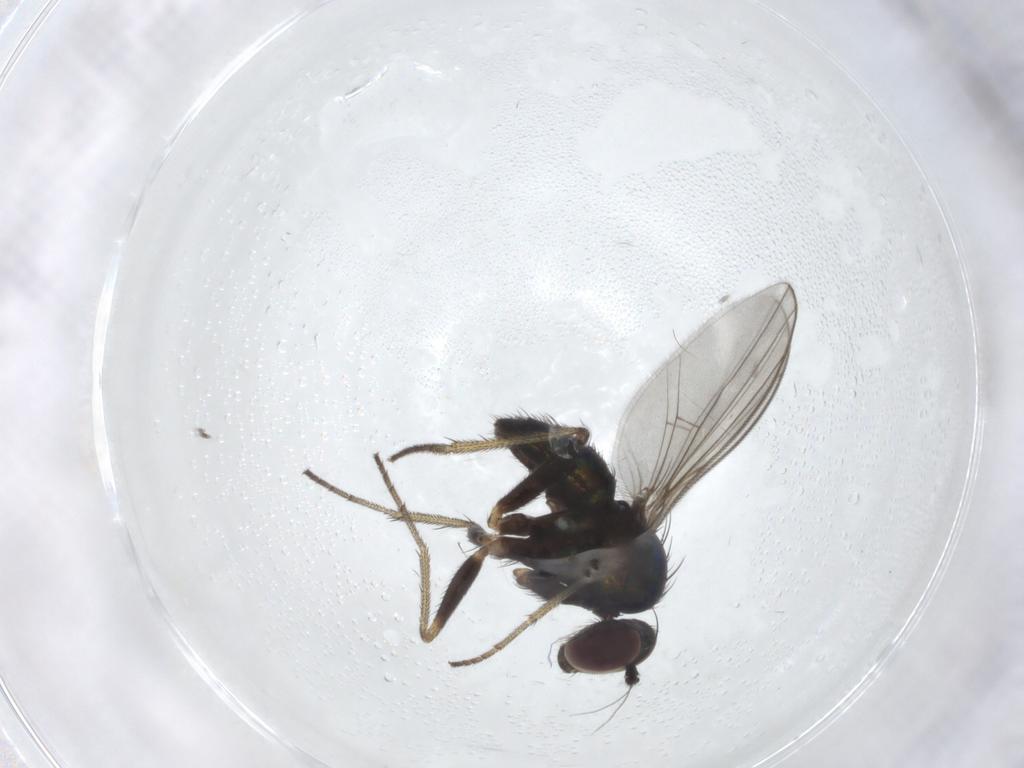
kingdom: Animalia
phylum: Arthropoda
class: Insecta
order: Diptera
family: Dolichopodidae
